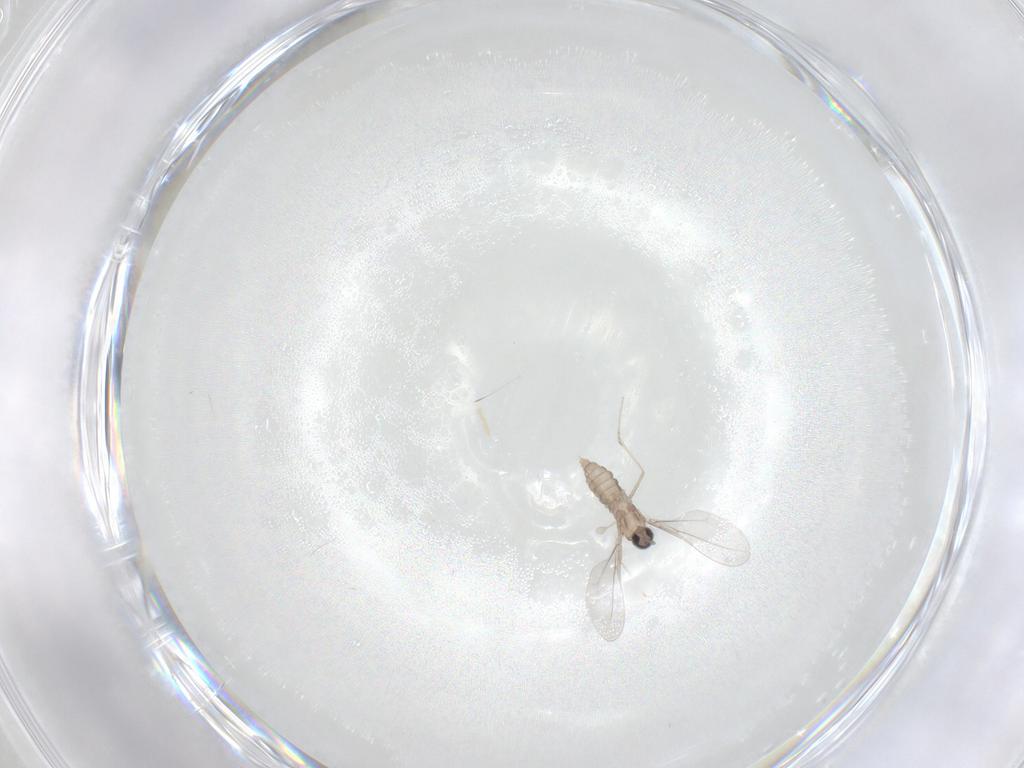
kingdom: Animalia
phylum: Arthropoda
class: Insecta
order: Diptera
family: Cecidomyiidae
